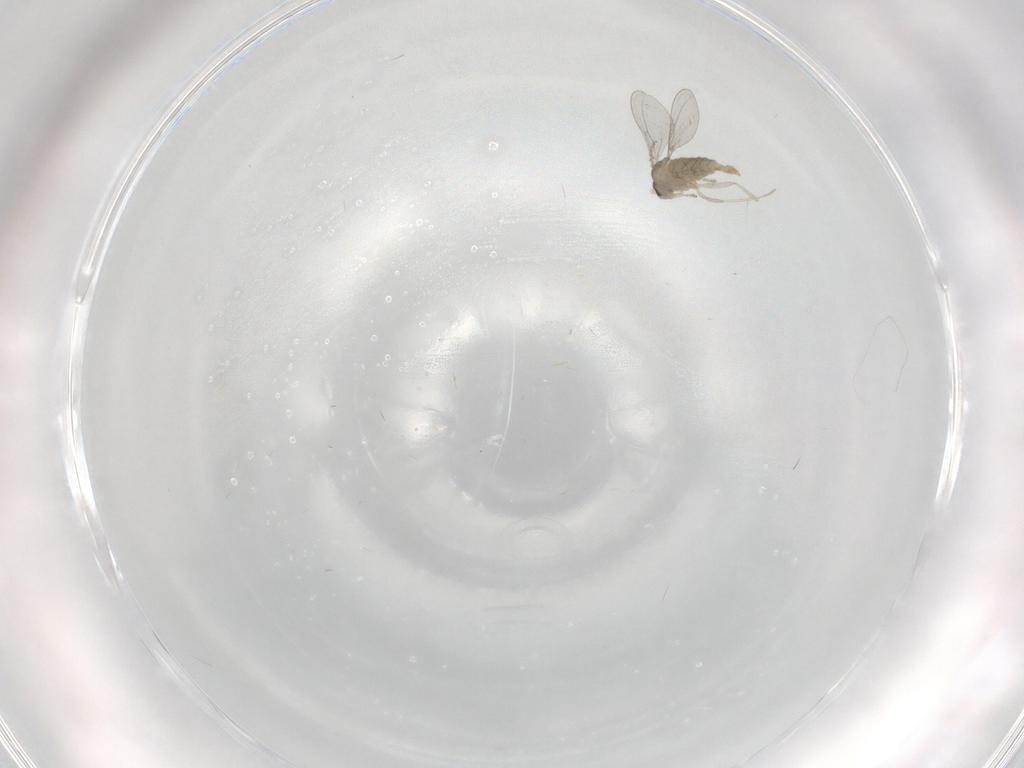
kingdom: Animalia
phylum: Arthropoda
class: Insecta
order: Diptera
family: Cecidomyiidae
